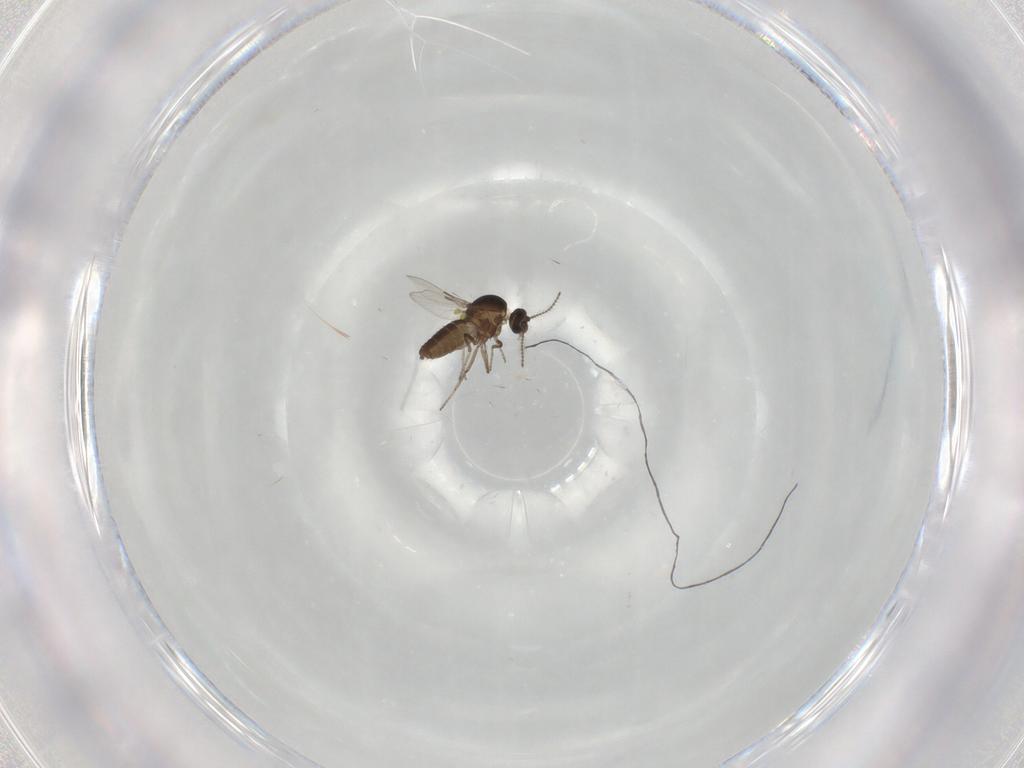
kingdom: Animalia
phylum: Arthropoda
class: Insecta
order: Diptera
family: Ceratopogonidae
